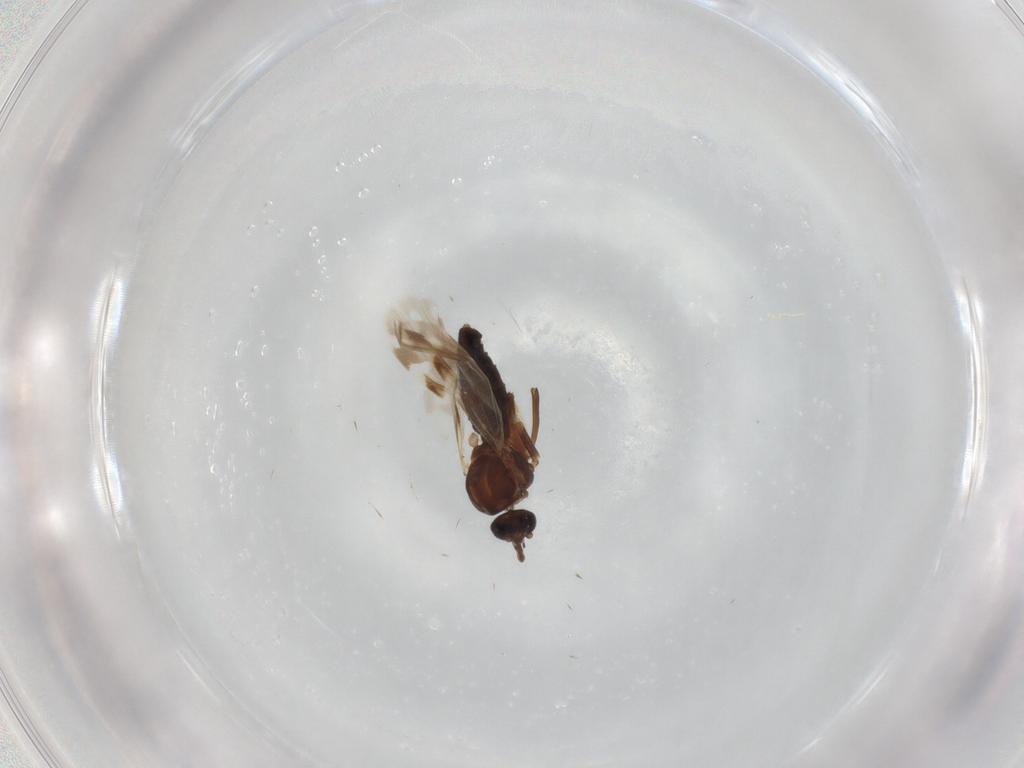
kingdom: Animalia
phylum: Arthropoda
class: Insecta
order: Diptera
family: Ceratopogonidae
